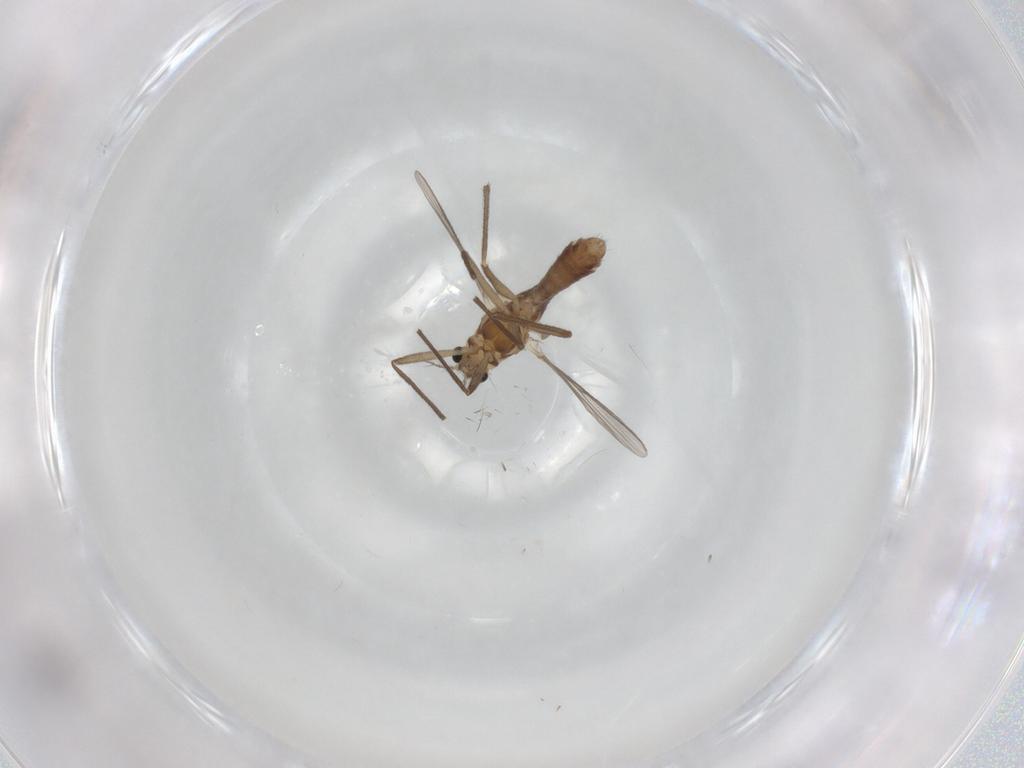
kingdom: Animalia
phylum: Arthropoda
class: Insecta
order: Diptera
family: Chironomidae
